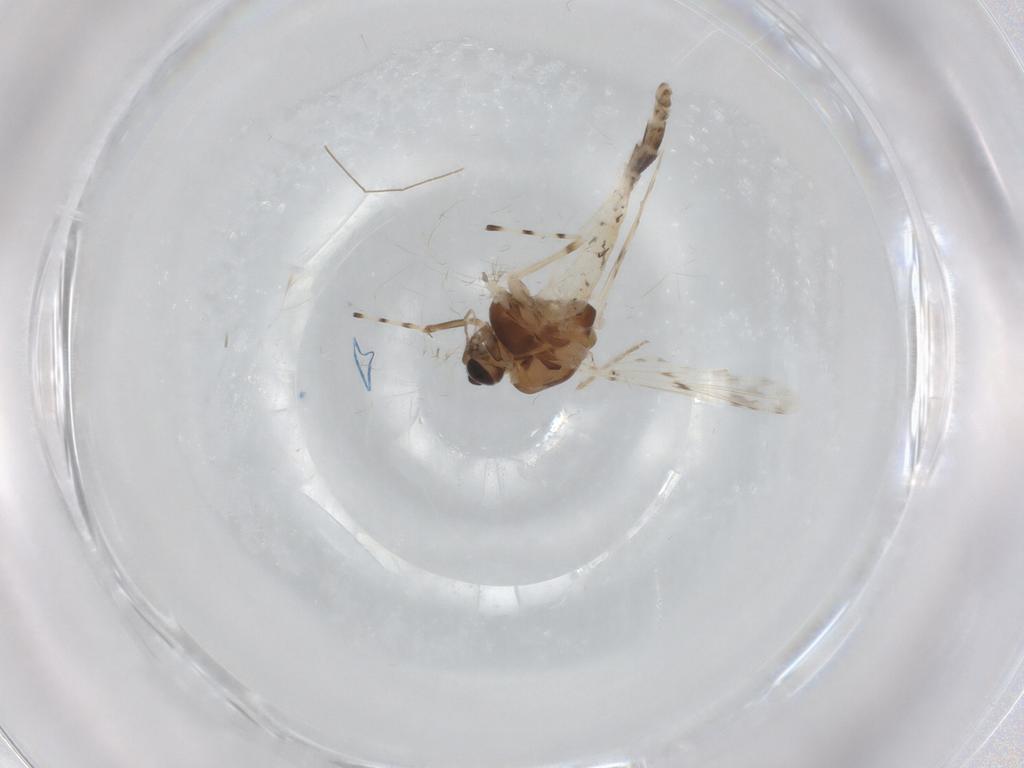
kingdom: Animalia
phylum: Arthropoda
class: Insecta
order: Diptera
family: Chironomidae
